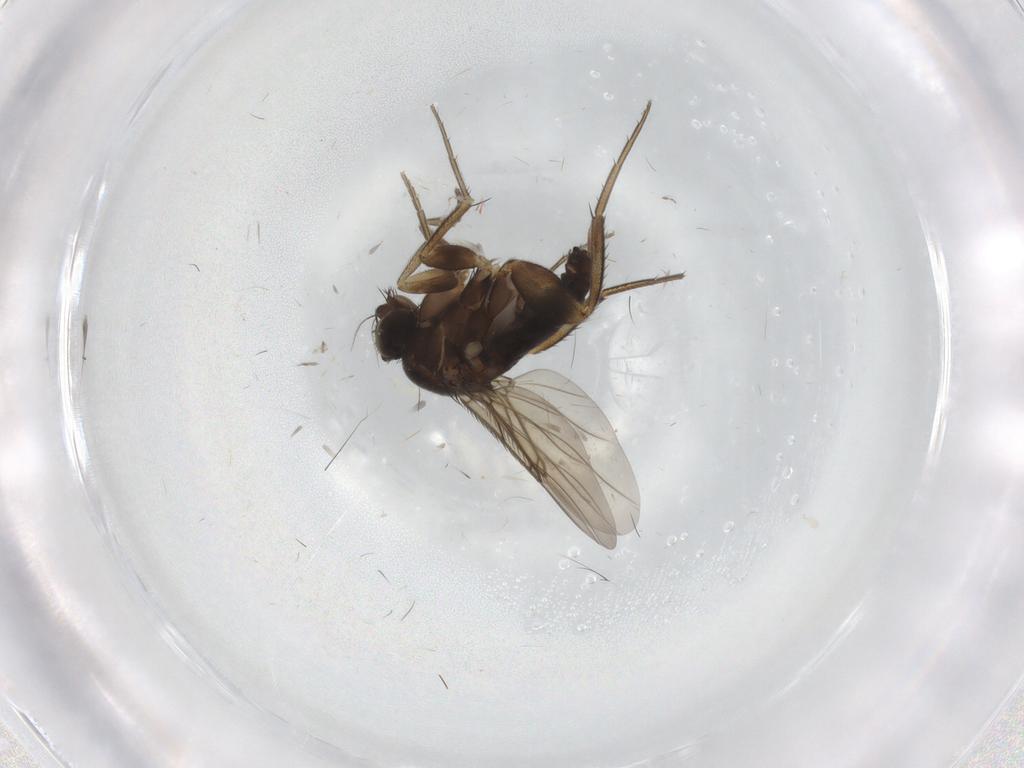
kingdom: Animalia
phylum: Arthropoda
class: Insecta
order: Diptera
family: Phoridae
